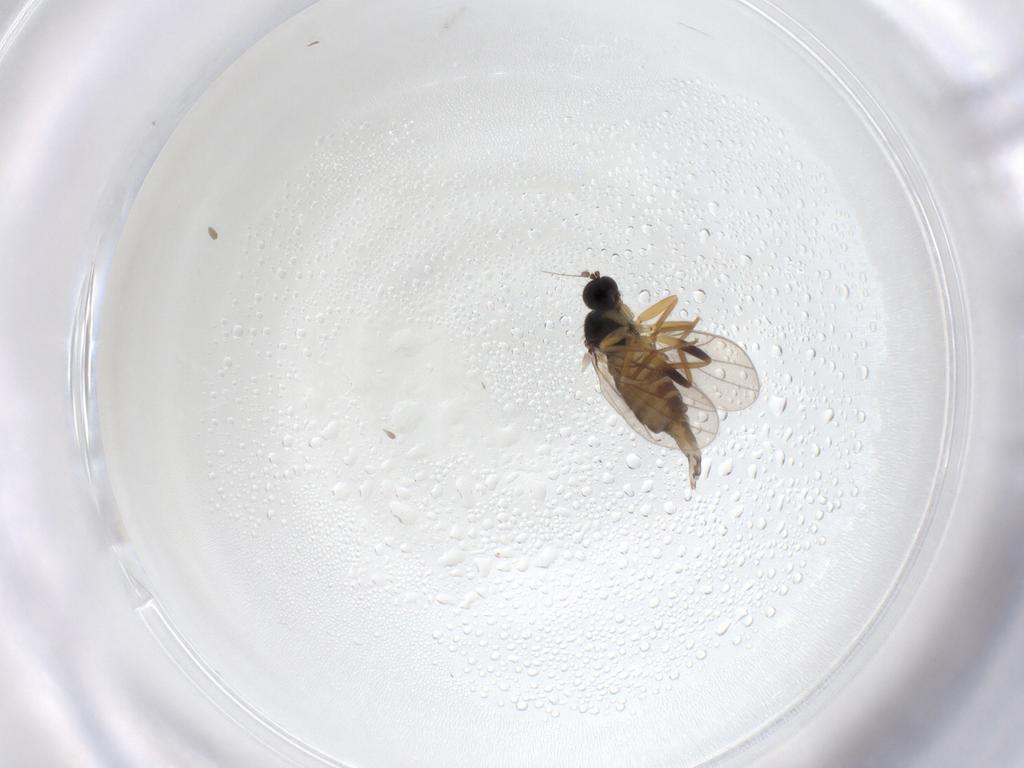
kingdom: Animalia
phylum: Arthropoda
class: Insecta
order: Diptera
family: Hybotidae
